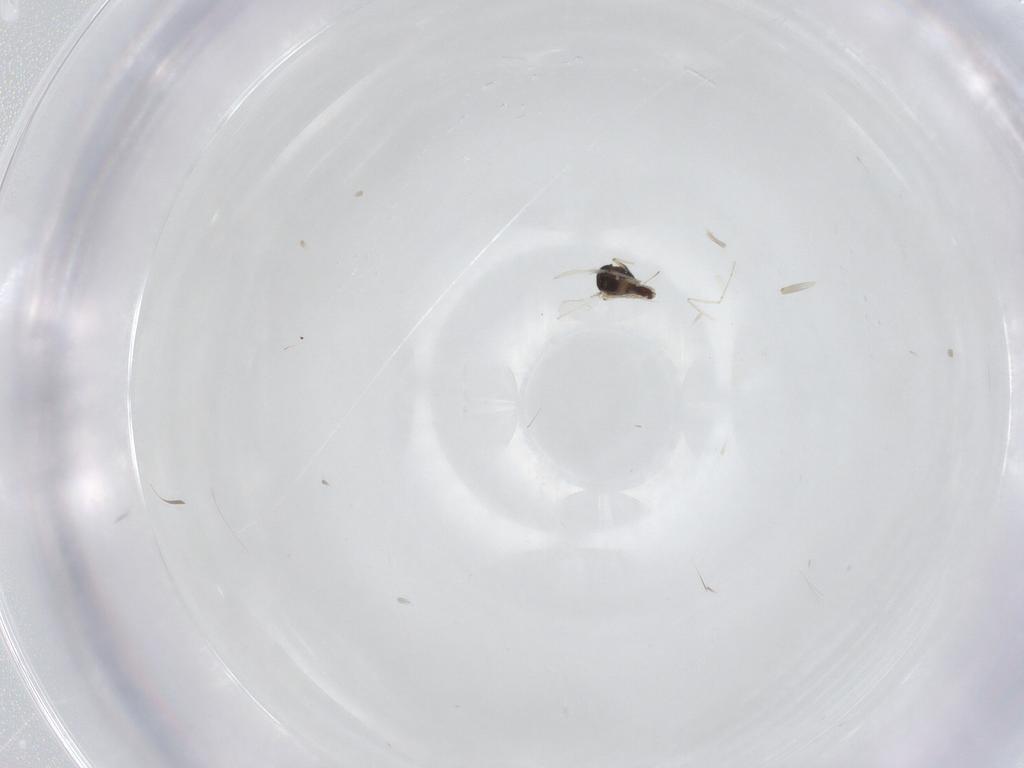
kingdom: Animalia
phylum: Arthropoda
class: Insecta
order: Diptera
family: Cecidomyiidae
